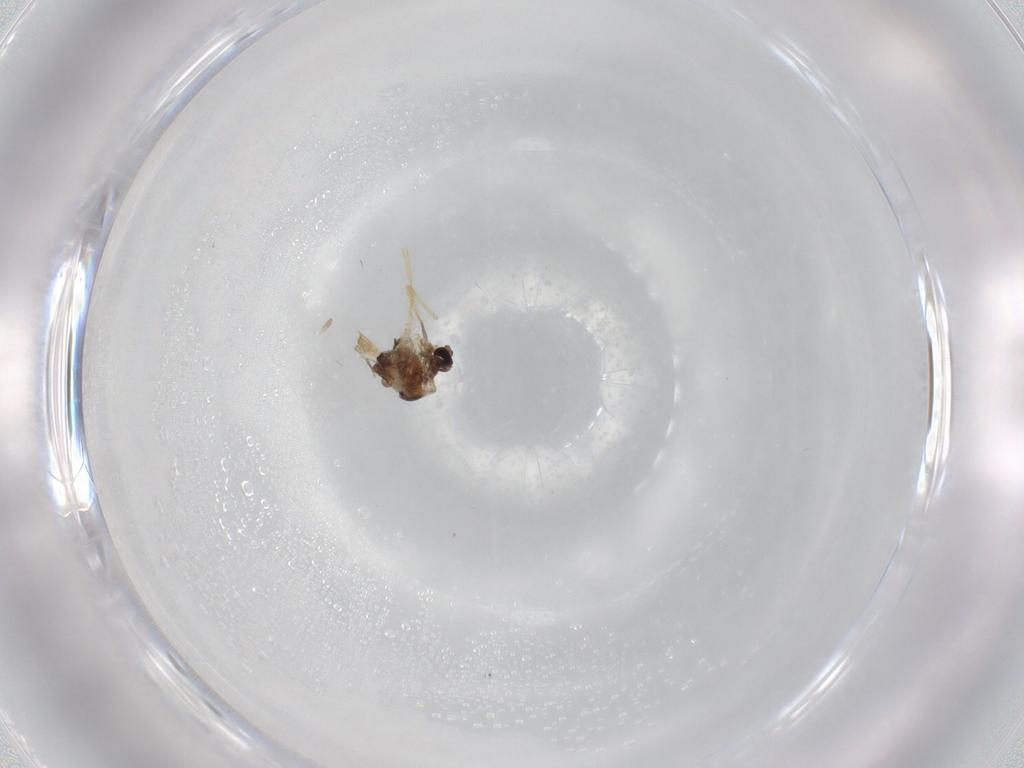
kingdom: Animalia
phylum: Arthropoda
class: Insecta
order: Diptera
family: Chironomidae
